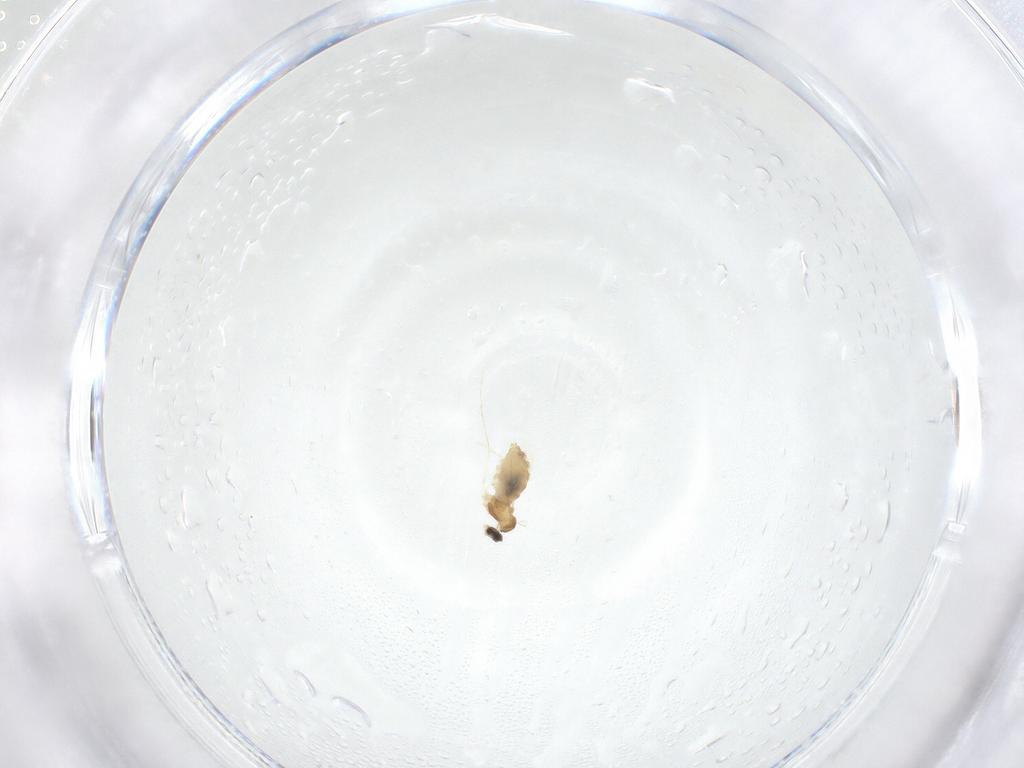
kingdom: Animalia
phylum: Arthropoda
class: Insecta
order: Diptera
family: Cecidomyiidae
